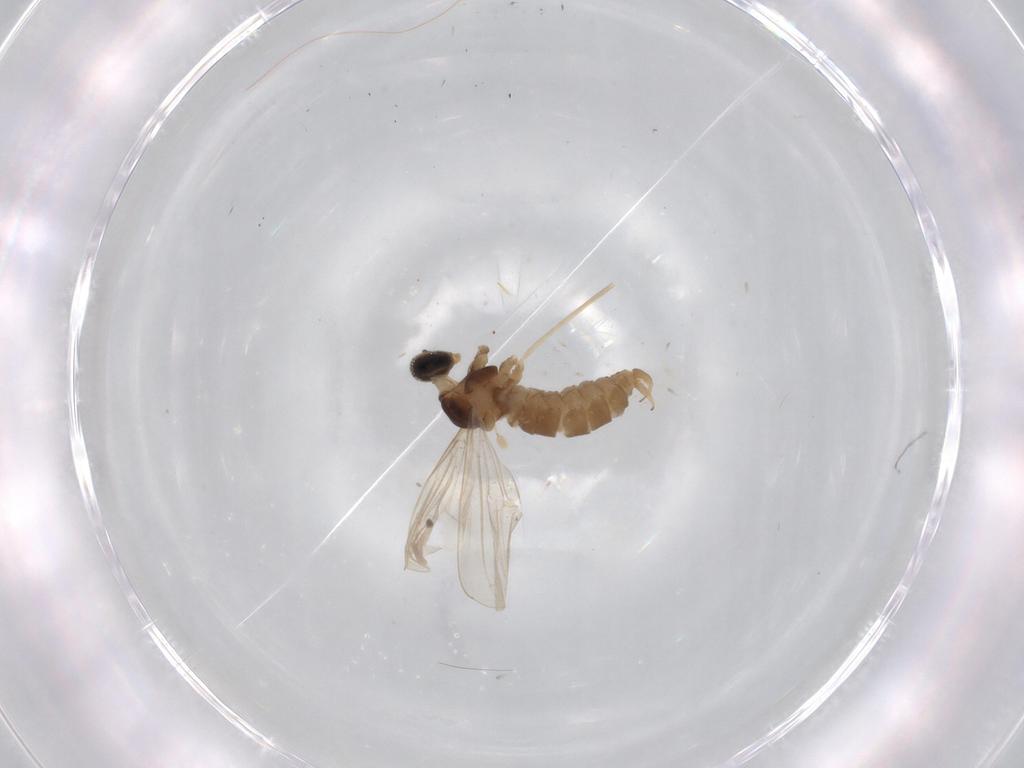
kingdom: Animalia
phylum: Arthropoda
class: Insecta
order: Diptera
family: Cecidomyiidae
